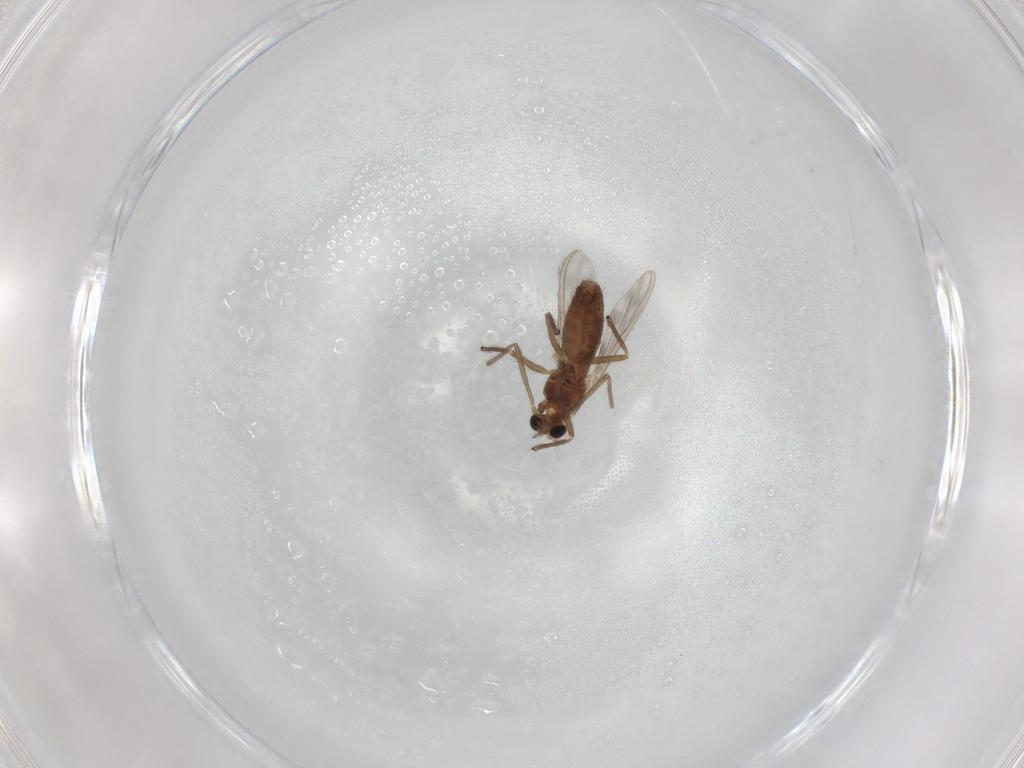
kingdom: Animalia
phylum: Arthropoda
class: Insecta
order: Diptera
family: Chironomidae
